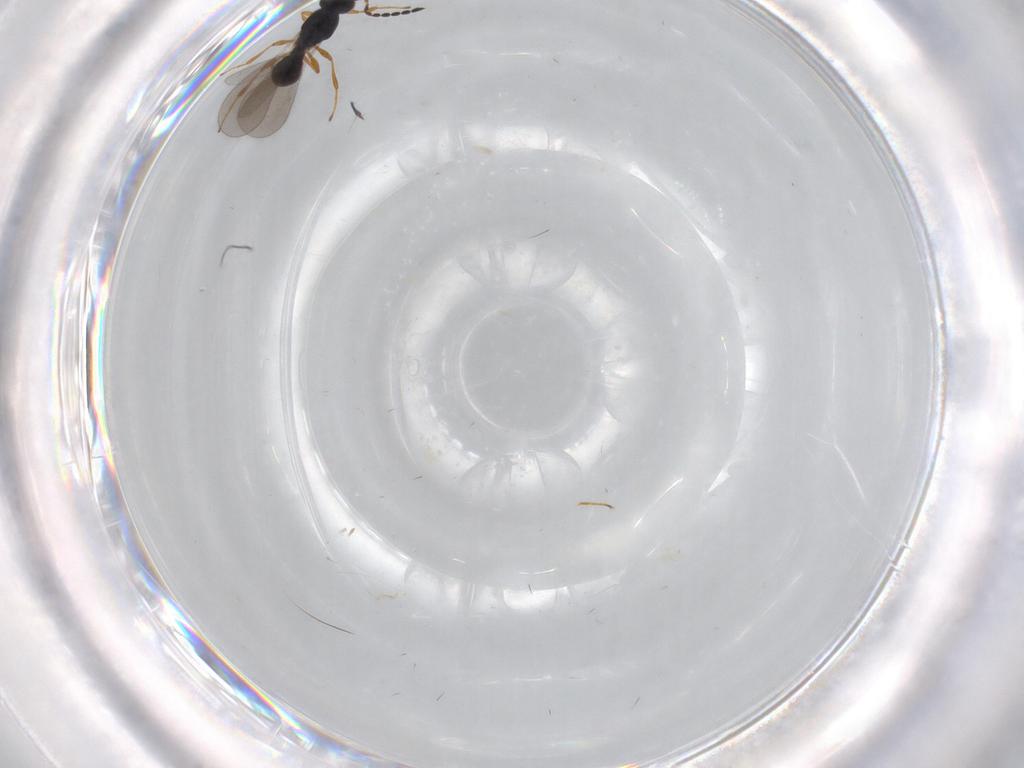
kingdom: Animalia
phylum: Arthropoda
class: Insecta
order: Hymenoptera
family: Platygastridae
